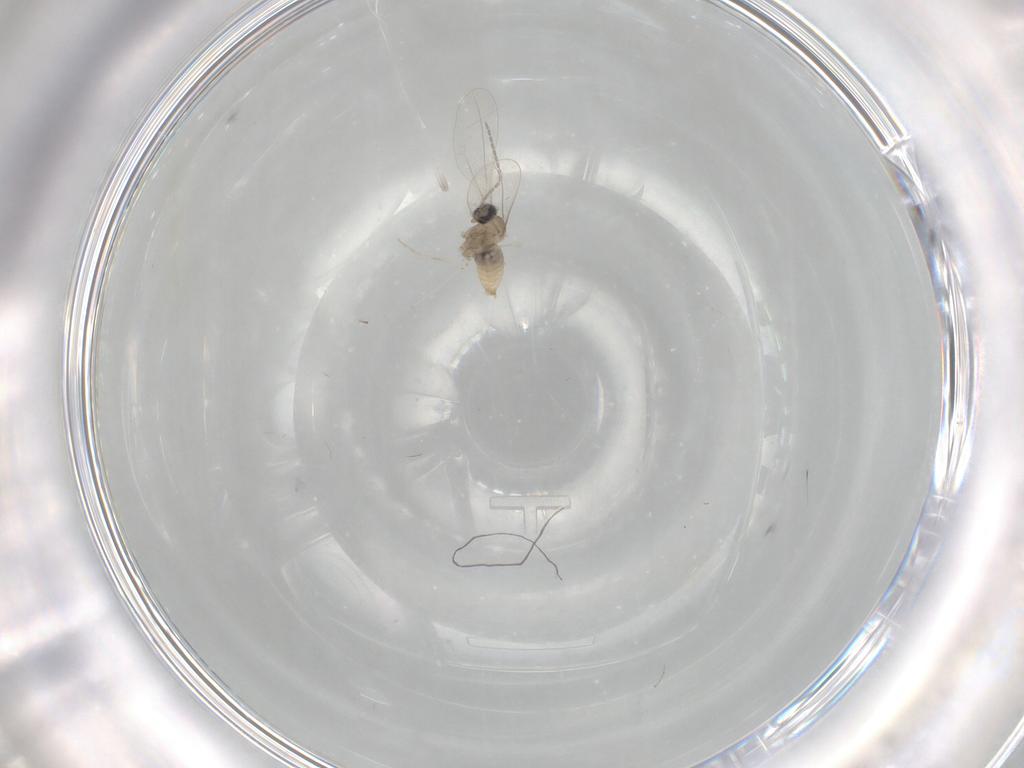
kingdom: Animalia
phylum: Arthropoda
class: Insecta
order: Diptera
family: Cecidomyiidae
